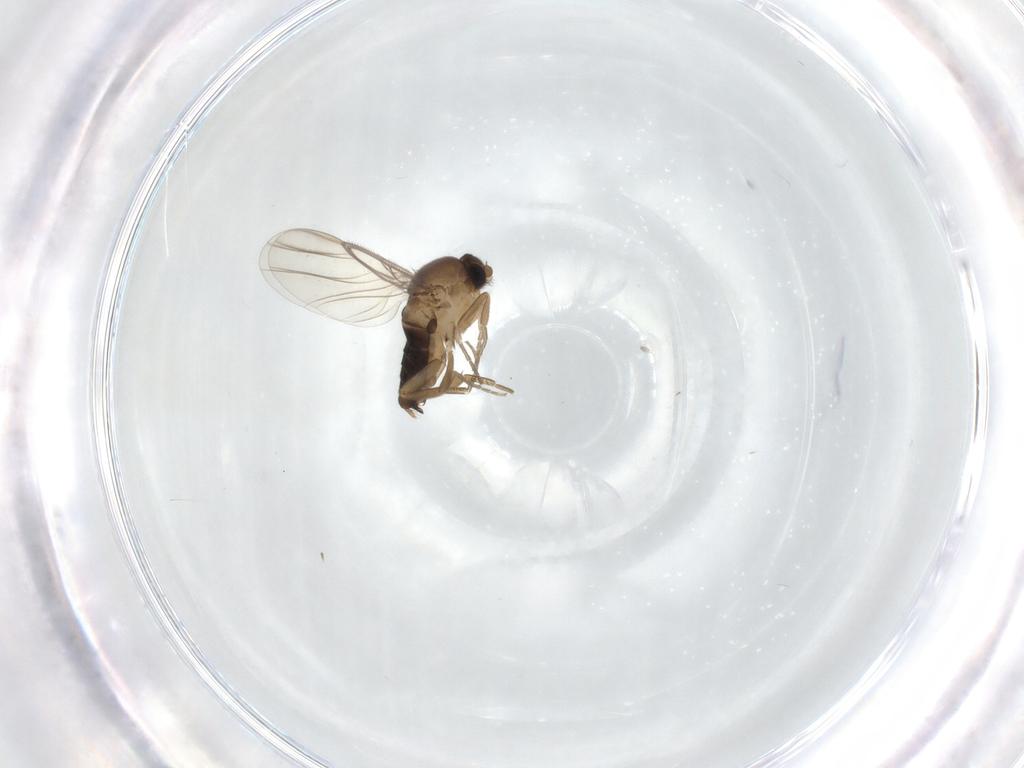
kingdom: Animalia
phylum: Arthropoda
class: Insecta
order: Diptera
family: Phoridae
